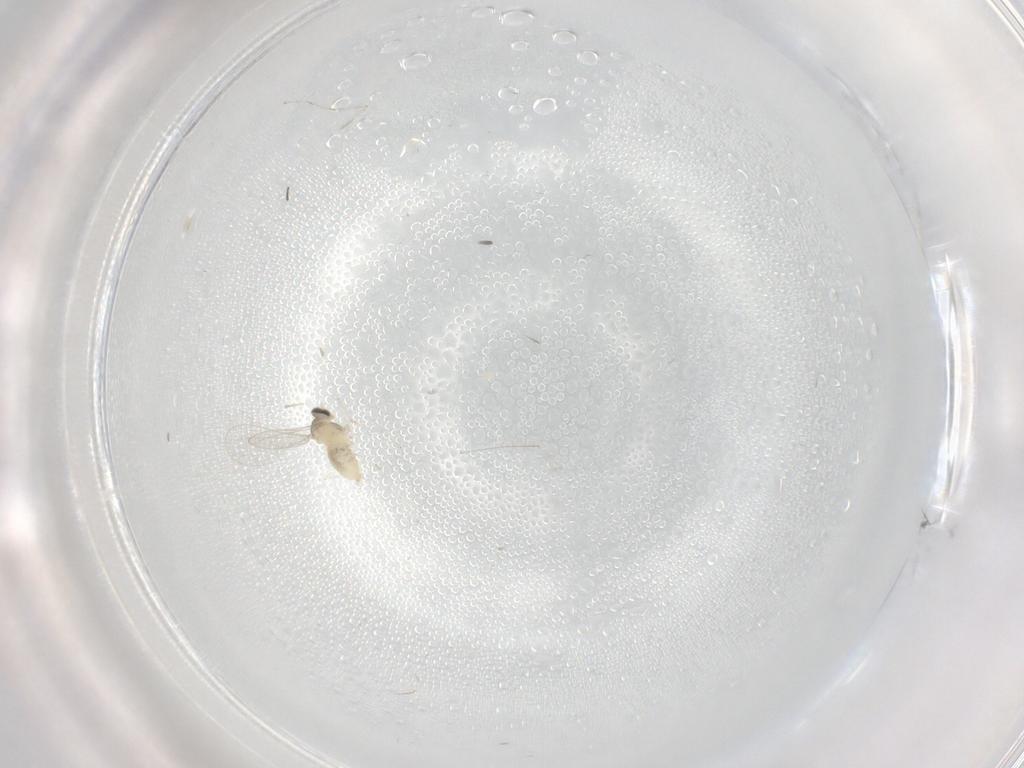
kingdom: Animalia
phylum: Arthropoda
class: Insecta
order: Diptera
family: Cecidomyiidae
